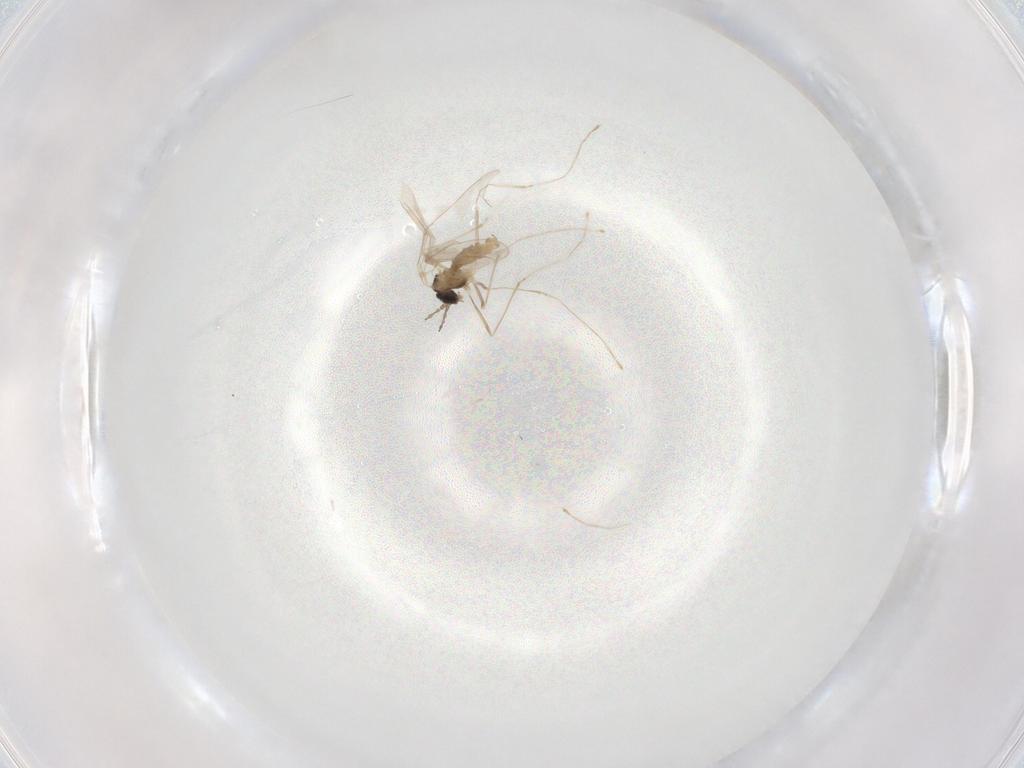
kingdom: Animalia
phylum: Arthropoda
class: Insecta
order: Diptera
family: Cecidomyiidae
